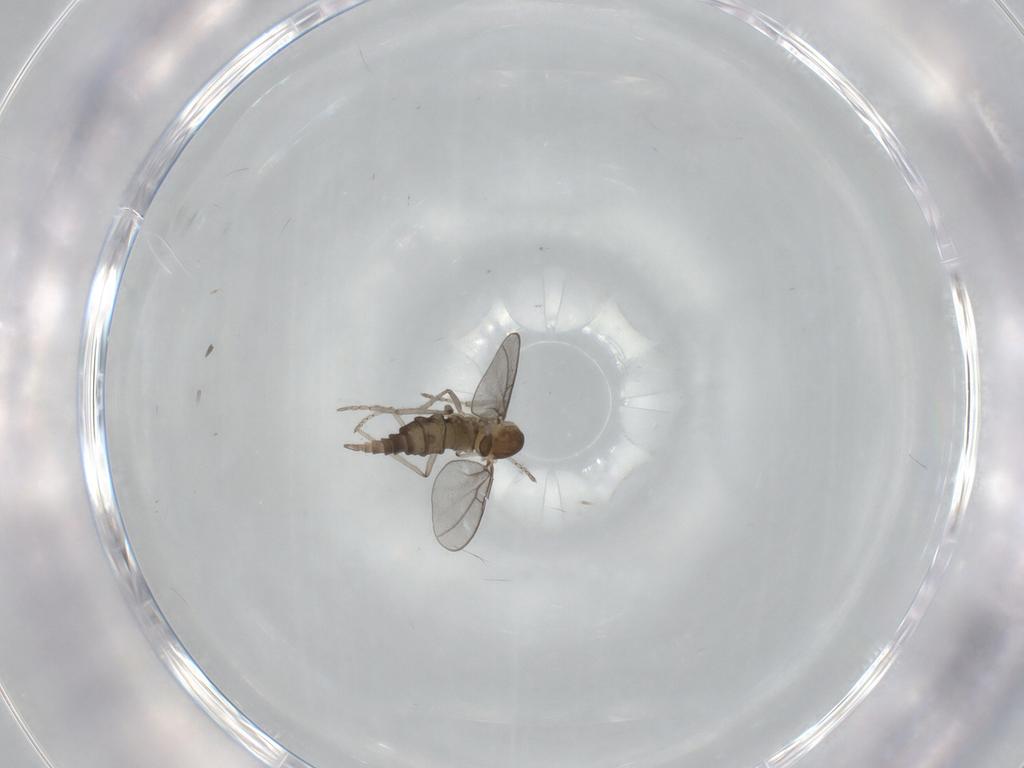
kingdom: Animalia
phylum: Arthropoda
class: Insecta
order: Diptera
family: Cecidomyiidae
